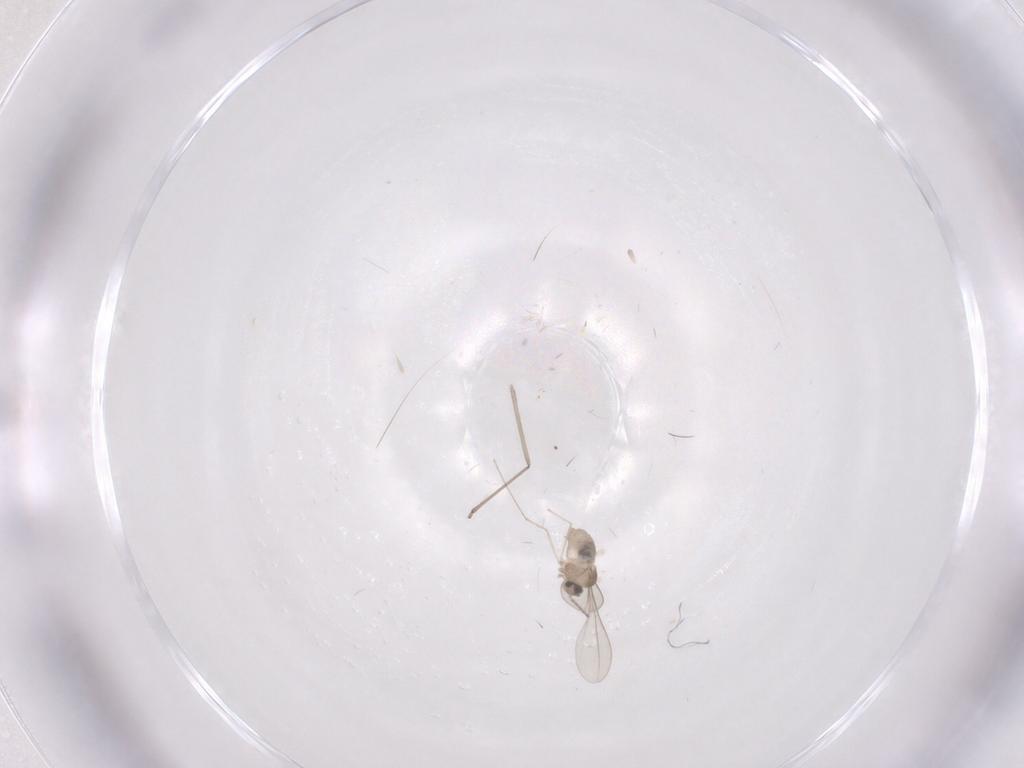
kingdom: Animalia
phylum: Arthropoda
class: Insecta
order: Diptera
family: Cecidomyiidae
